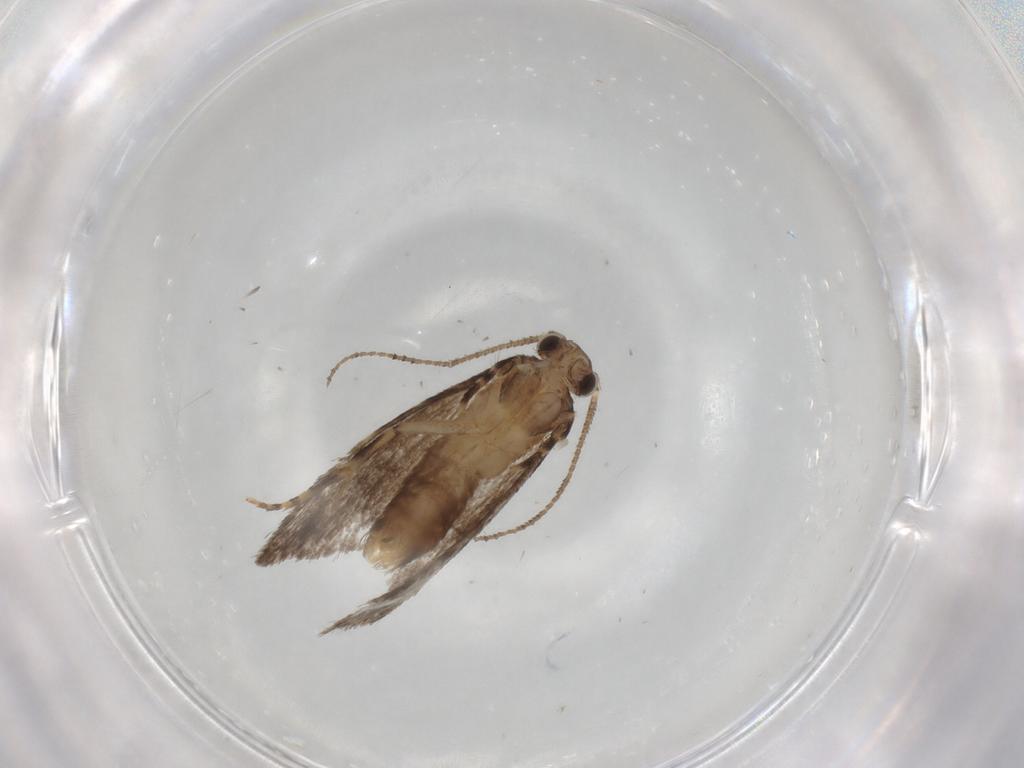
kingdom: Animalia
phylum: Arthropoda
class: Insecta
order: Lepidoptera
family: Dryadaulidae
